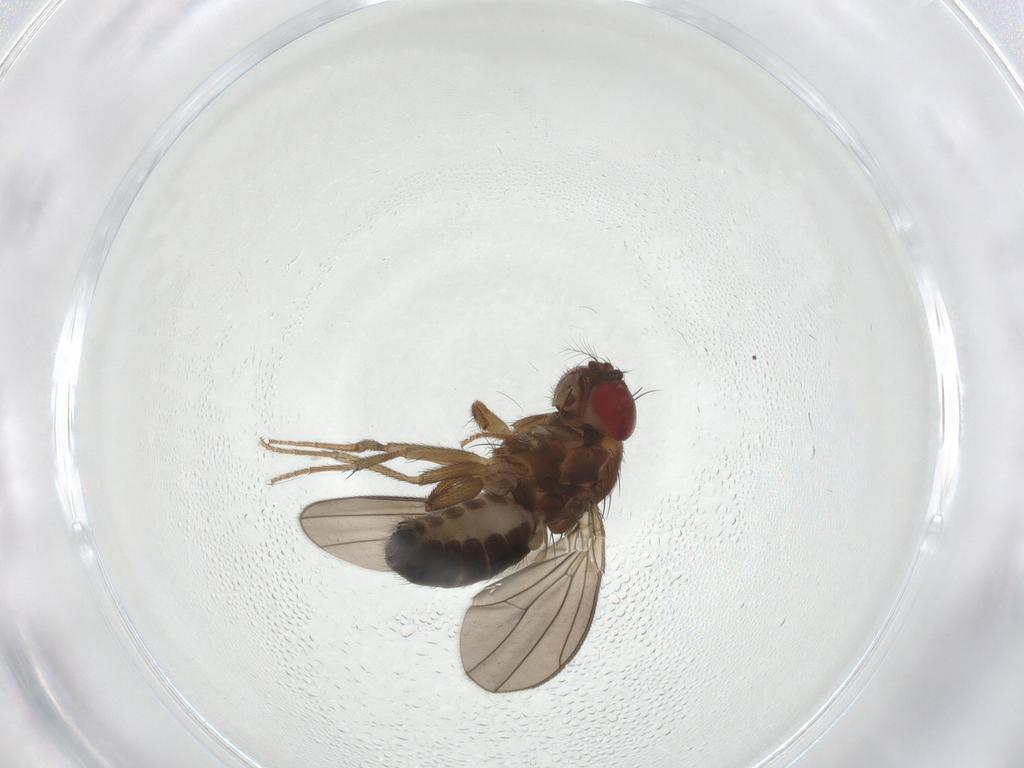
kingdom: Animalia
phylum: Arthropoda
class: Insecta
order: Diptera
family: Drosophilidae
